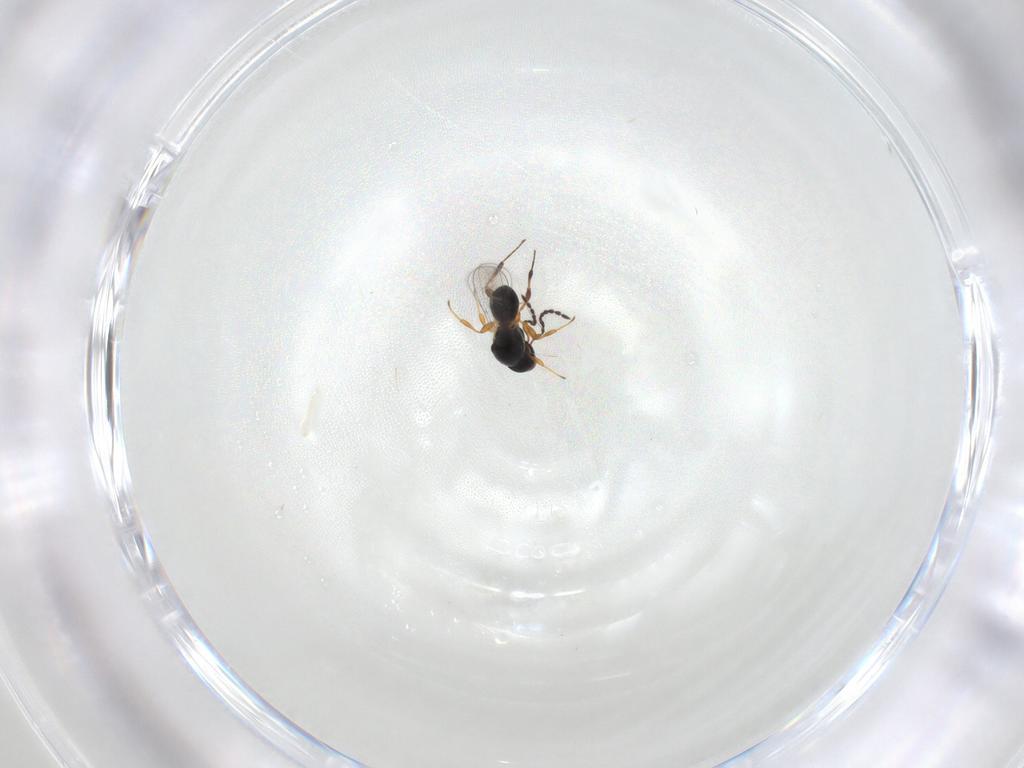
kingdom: Animalia
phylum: Arthropoda
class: Insecta
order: Hymenoptera
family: Platygastridae
